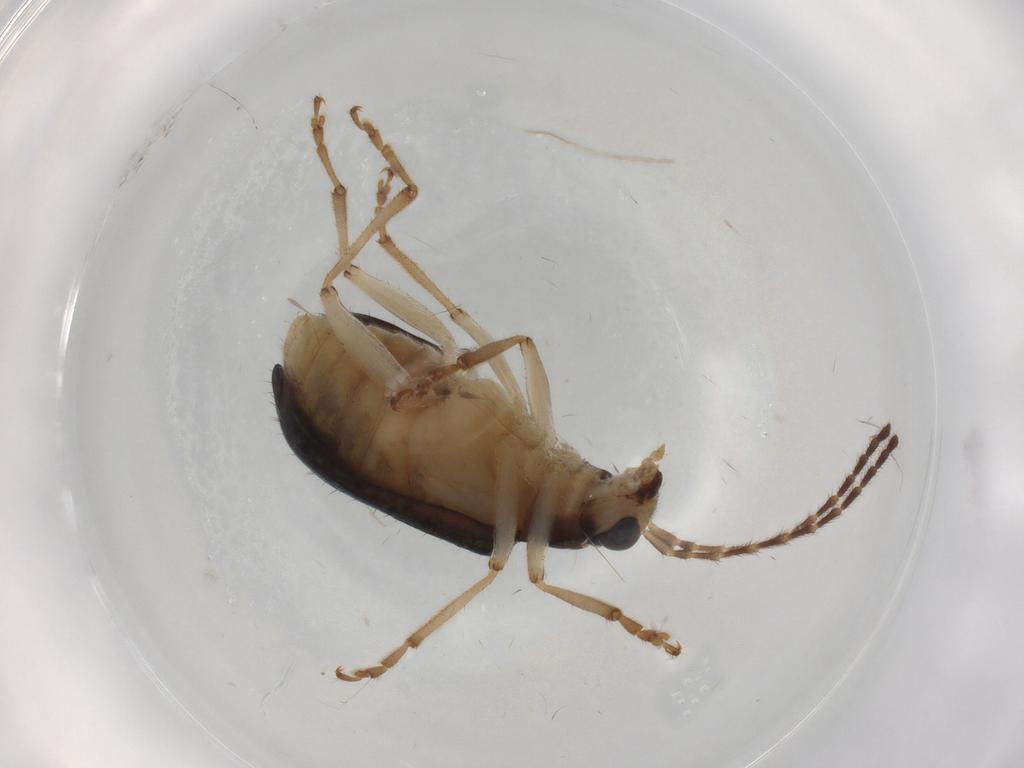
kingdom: Animalia
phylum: Arthropoda
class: Insecta
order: Coleoptera
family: Chrysomelidae
